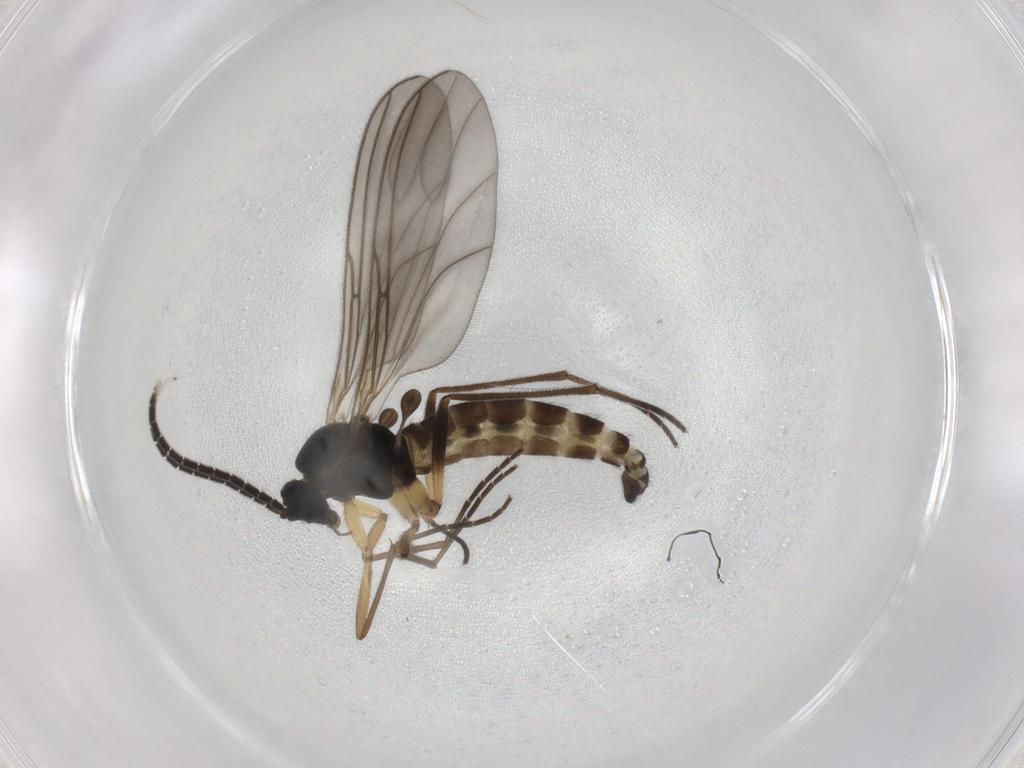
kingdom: Animalia
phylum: Arthropoda
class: Insecta
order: Diptera
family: Sciaridae
